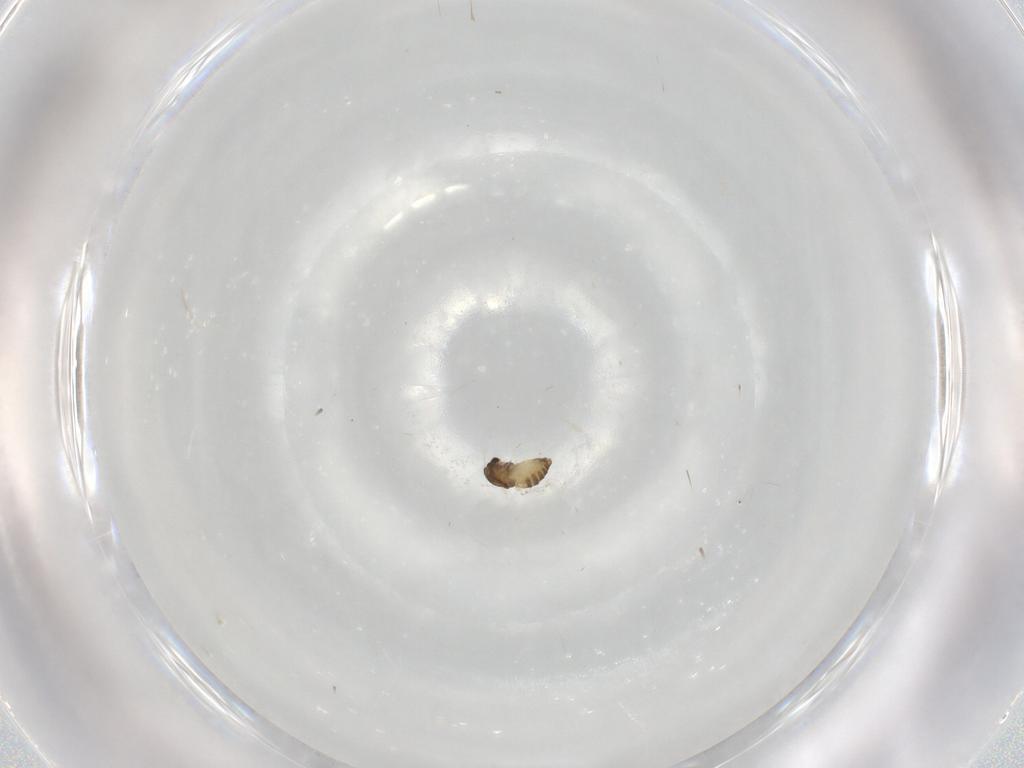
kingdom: Animalia
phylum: Arthropoda
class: Insecta
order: Diptera
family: Chironomidae
